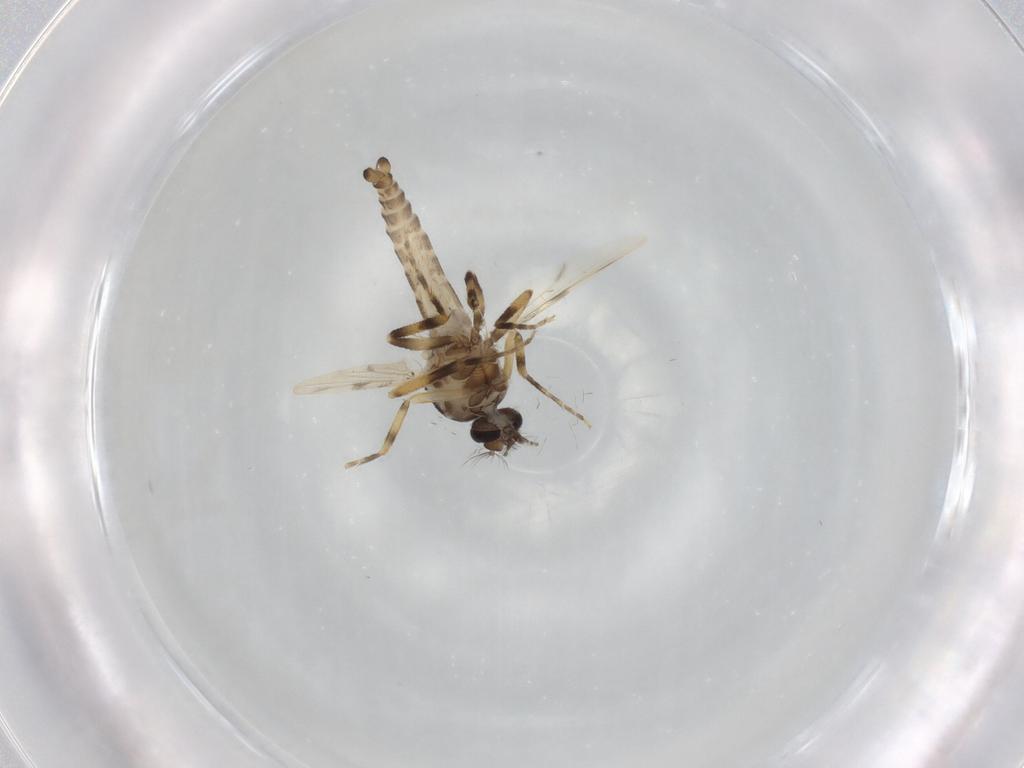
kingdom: Animalia
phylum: Arthropoda
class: Insecta
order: Diptera
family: Ceratopogonidae
